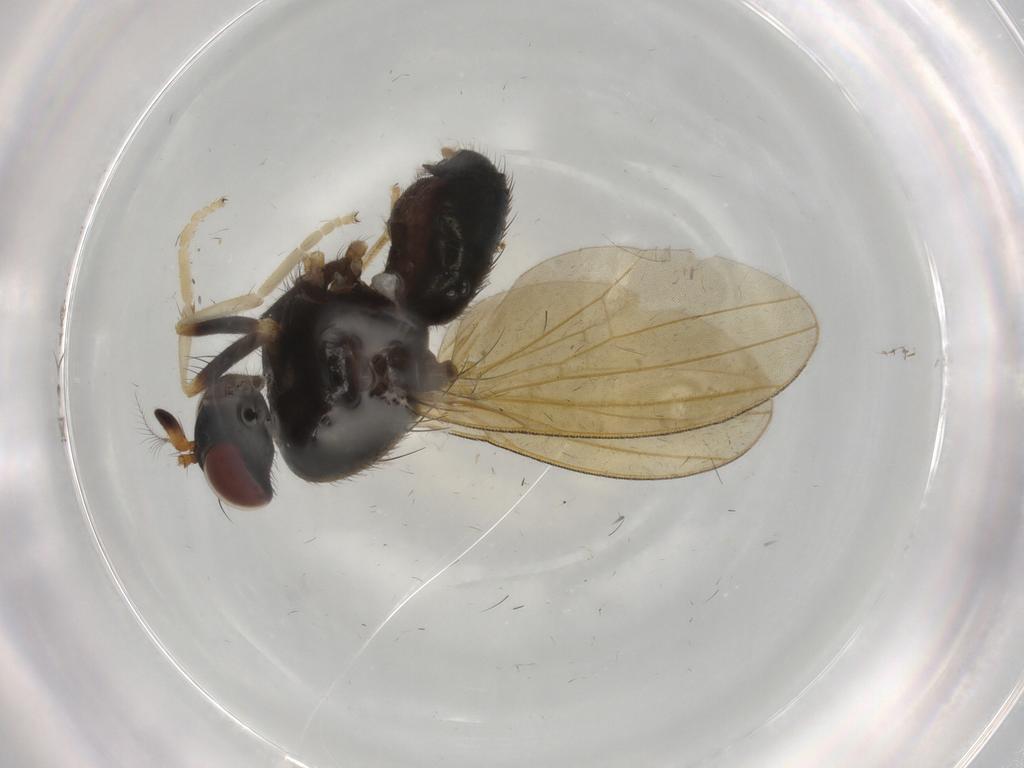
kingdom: Animalia
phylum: Arthropoda
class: Insecta
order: Diptera
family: Lauxaniidae
